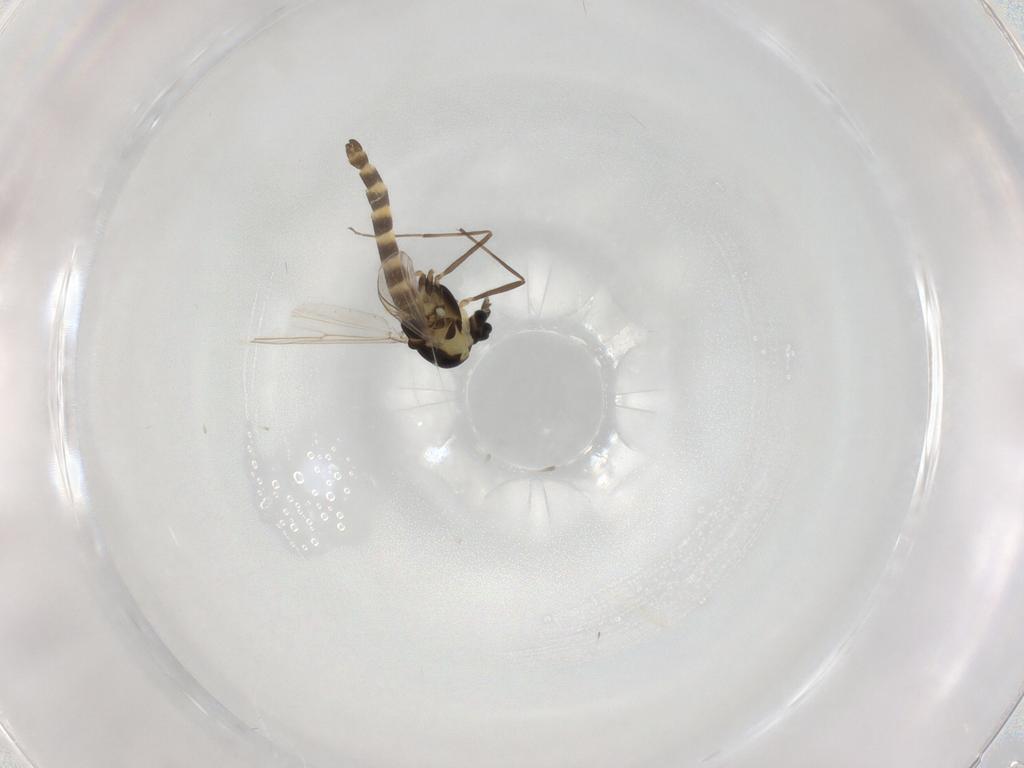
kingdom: Animalia
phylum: Arthropoda
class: Insecta
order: Diptera
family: Chironomidae
